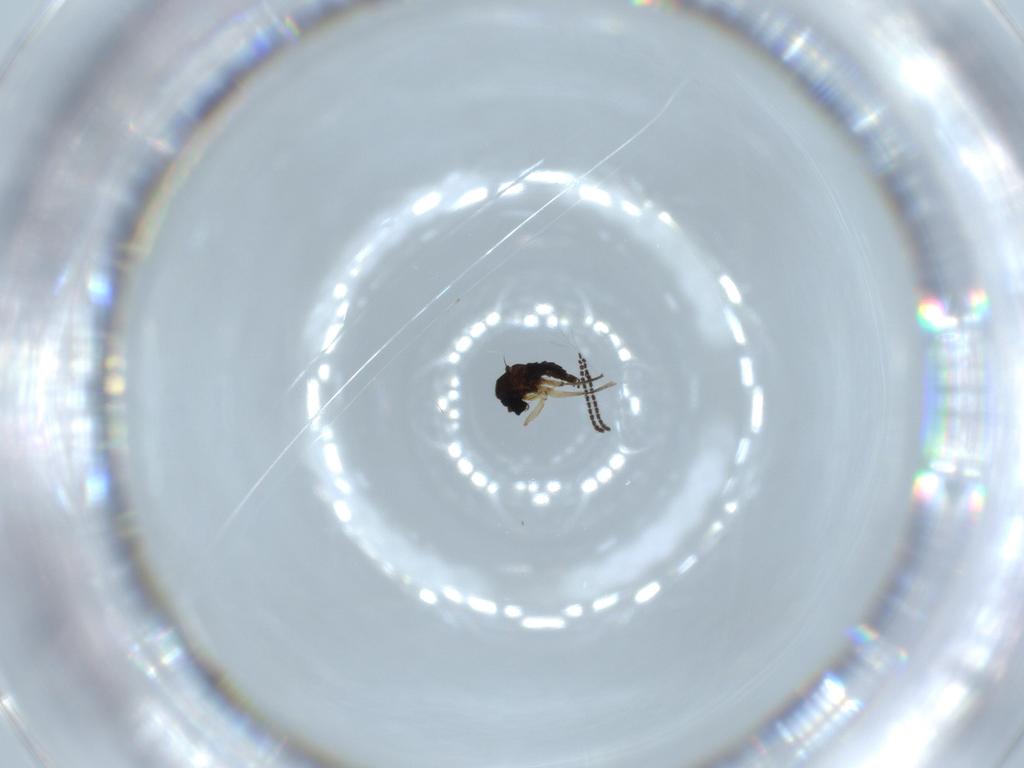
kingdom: Animalia
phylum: Arthropoda
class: Insecta
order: Diptera
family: Sciaridae
